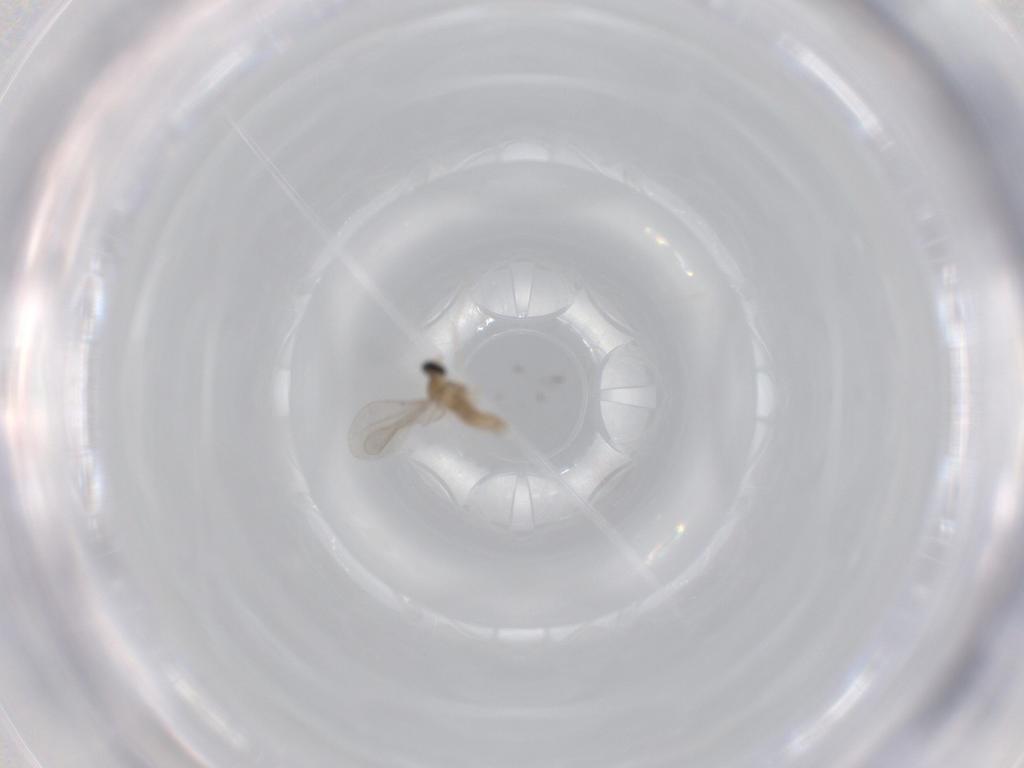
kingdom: Animalia
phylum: Arthropoda
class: Insecta
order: Diptera
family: Cecidomyiidae
